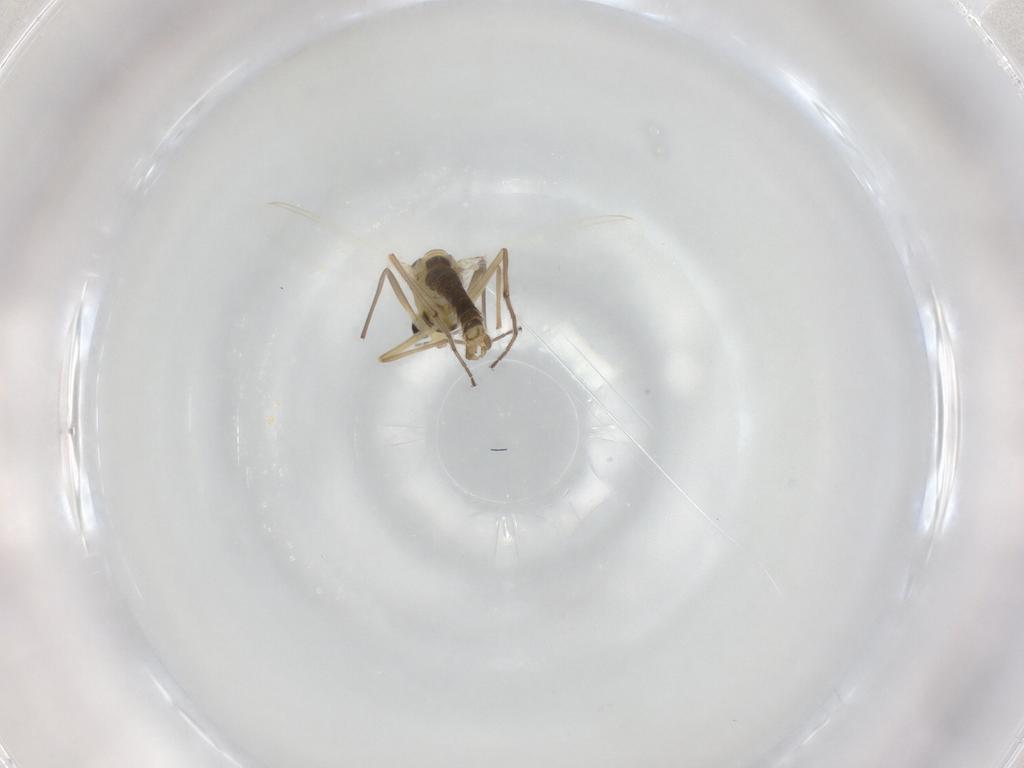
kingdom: Animalia
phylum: Arthropoda
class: Insecta
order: Diptera
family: Chironomidae
